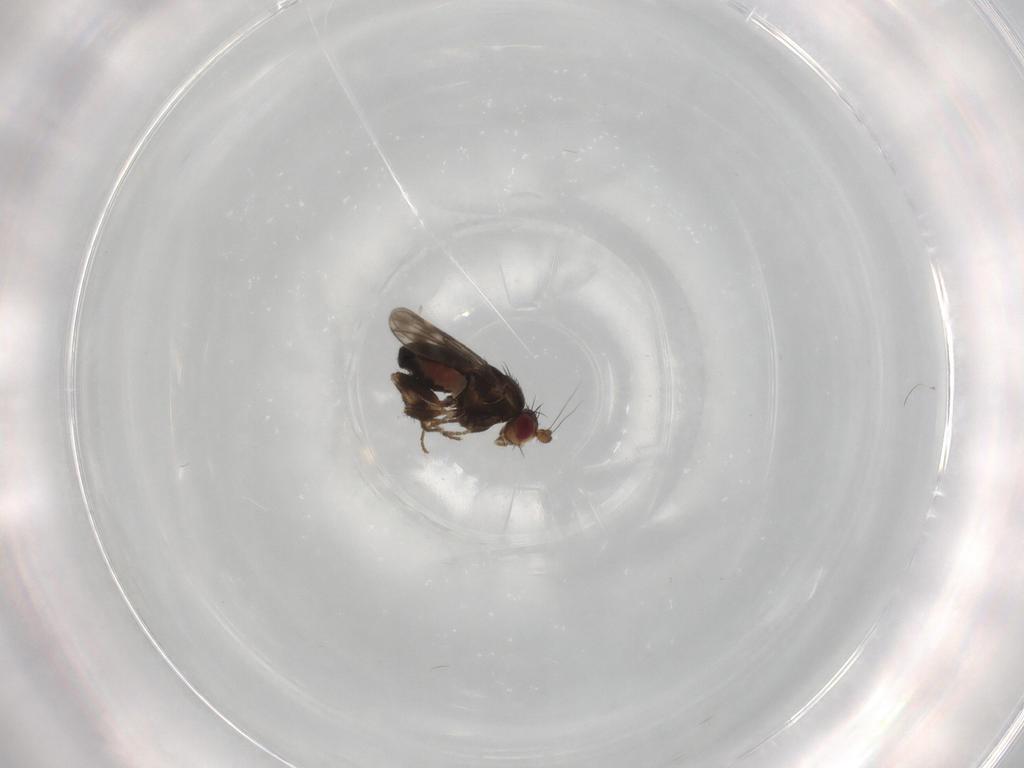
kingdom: Animalia
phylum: Arthropoda
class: Insecta
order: Diptera
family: Sphaeroceridae
